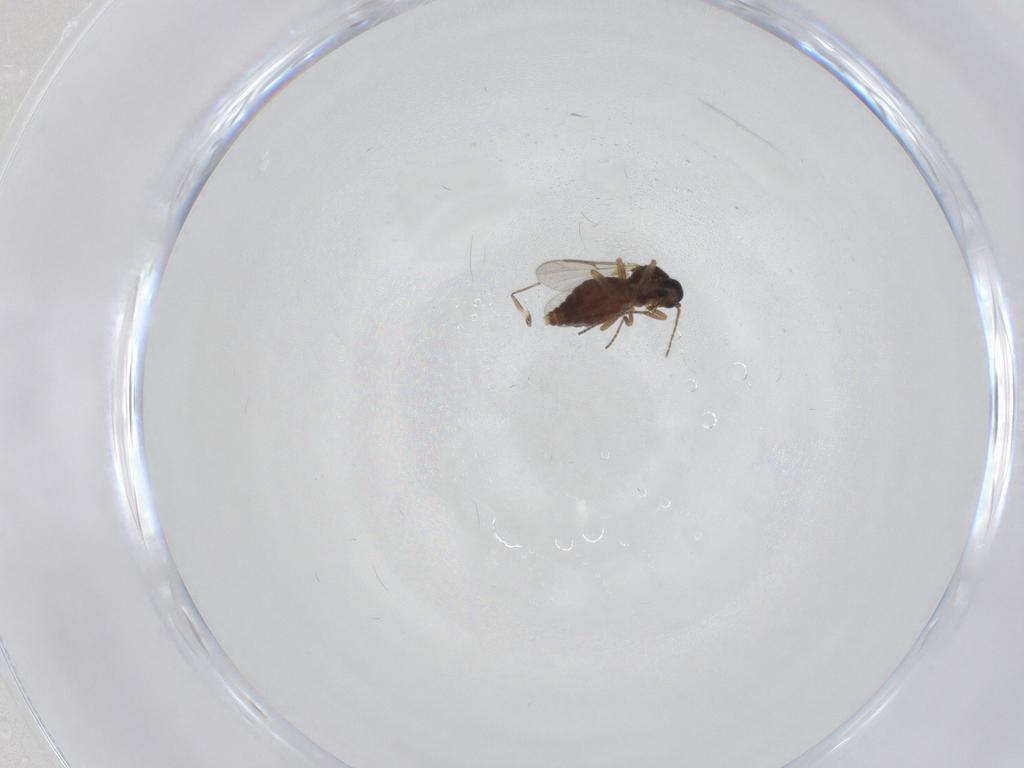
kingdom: Animalia
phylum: Arthropoda
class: Insecta
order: Diptera
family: Ceratopogonidae
